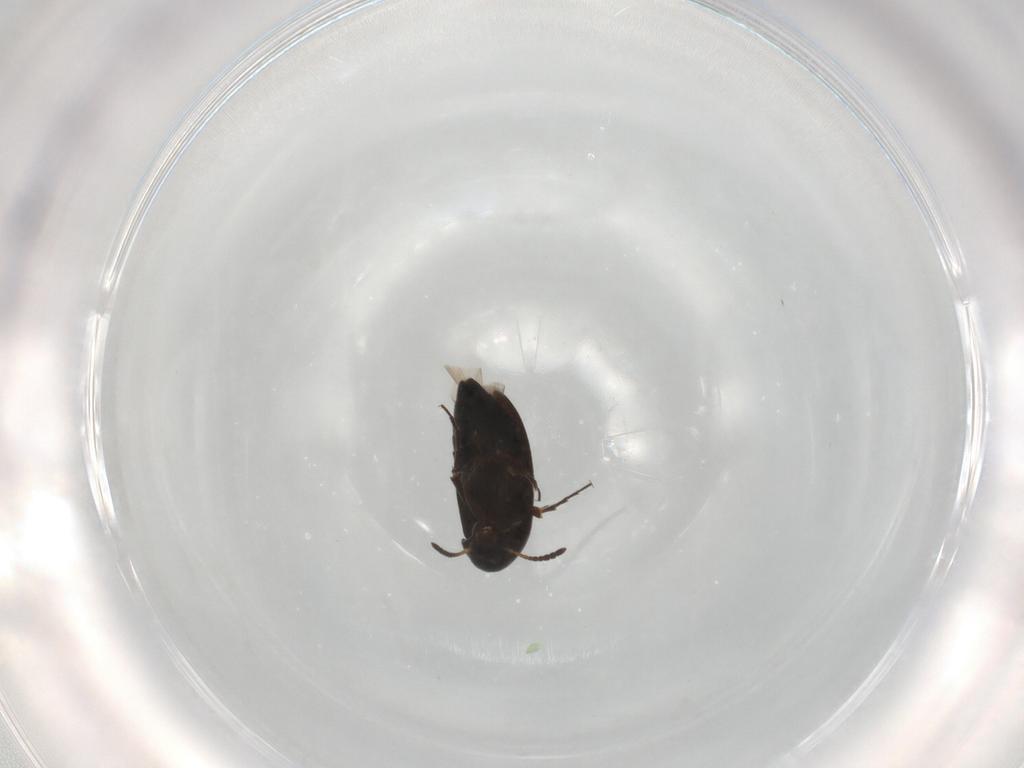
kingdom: Animalia
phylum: Arthropoda
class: Insecta
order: Coleoptera
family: Scraptiidae
